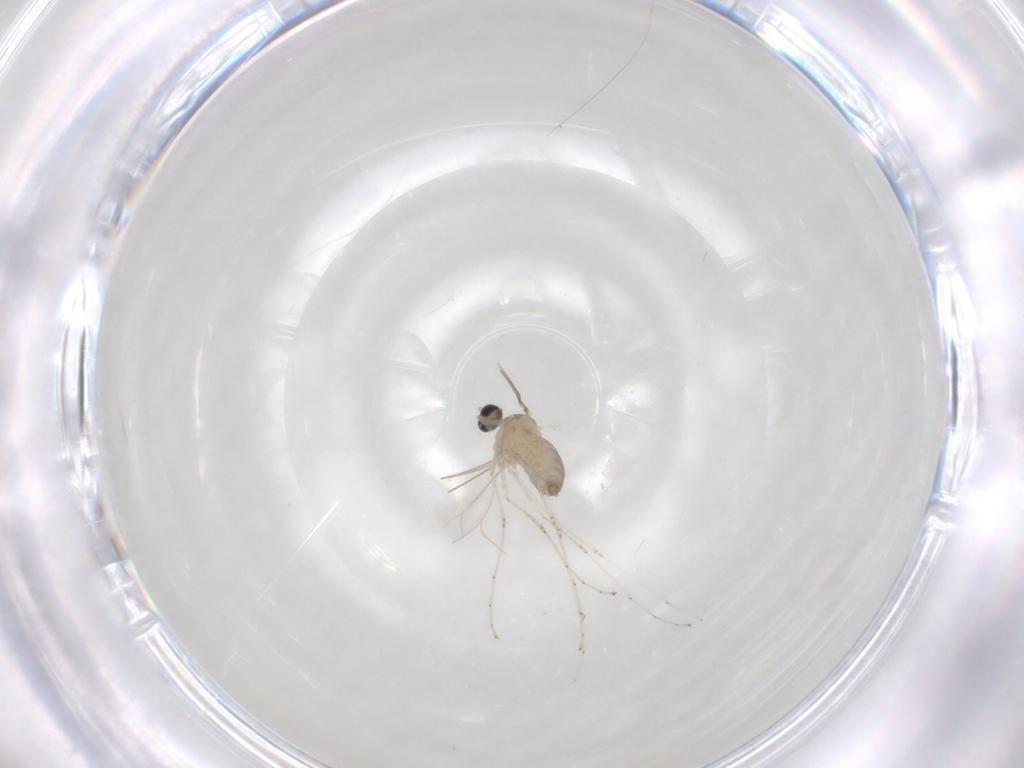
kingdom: Animalia
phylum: Arthropoda
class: Insecta
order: Diptera
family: Cecidomyiidae
